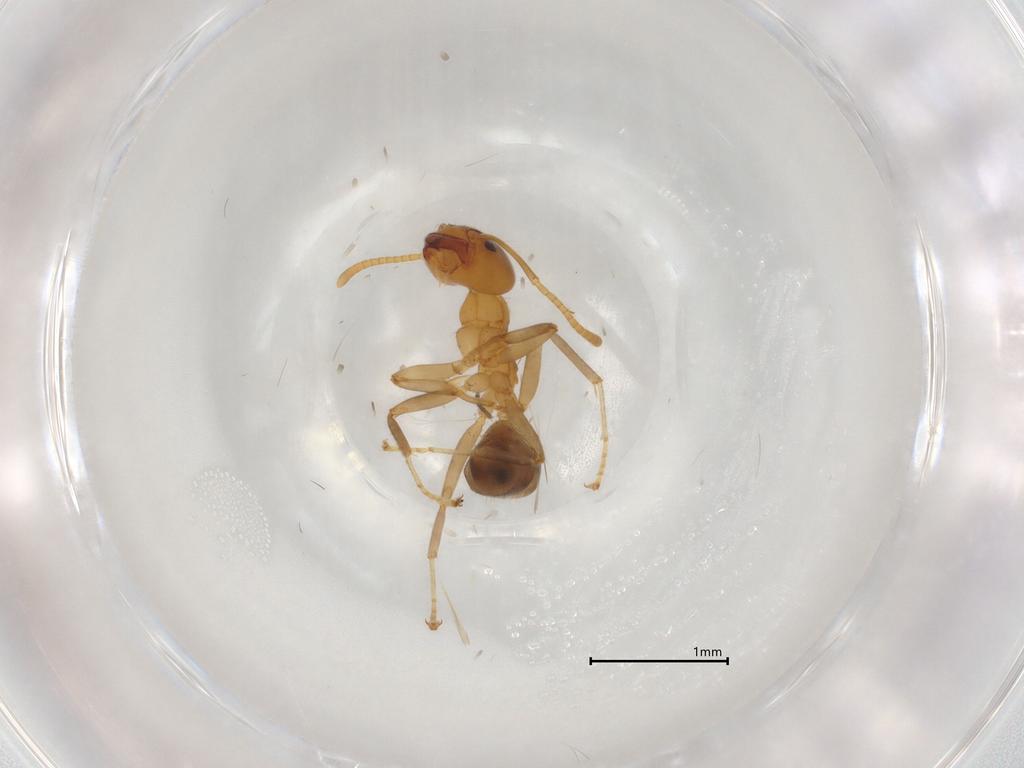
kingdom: Animalia
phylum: Arthropoda
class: Insecta
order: Hymenoptera
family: Formicidae
